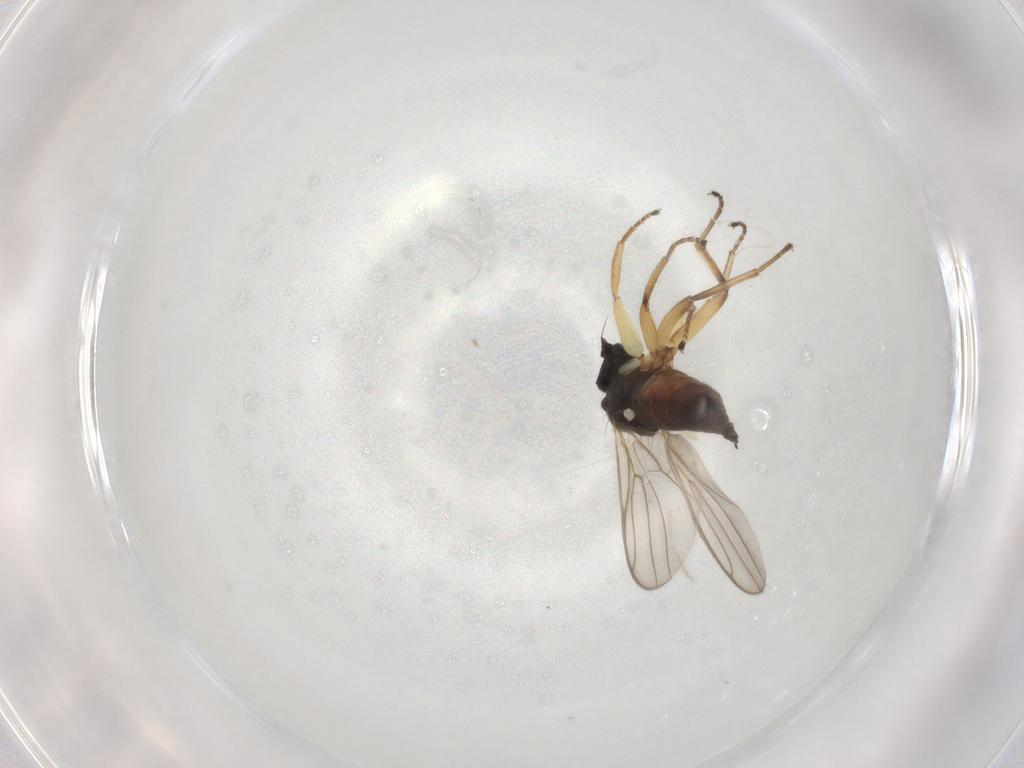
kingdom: Animalia
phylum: Arthropoda
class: Insecta
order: Diptera
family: Hybotidae
